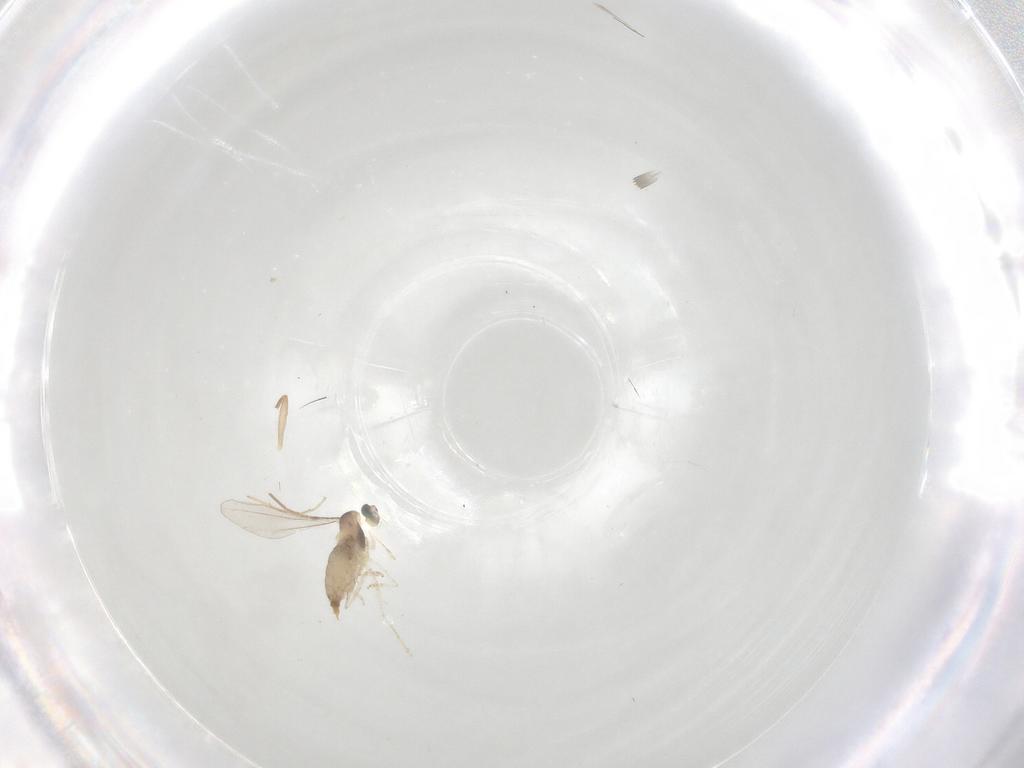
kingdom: Animalia
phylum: Arthropoda
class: Insecta
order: Diptera
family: Chironomidae
